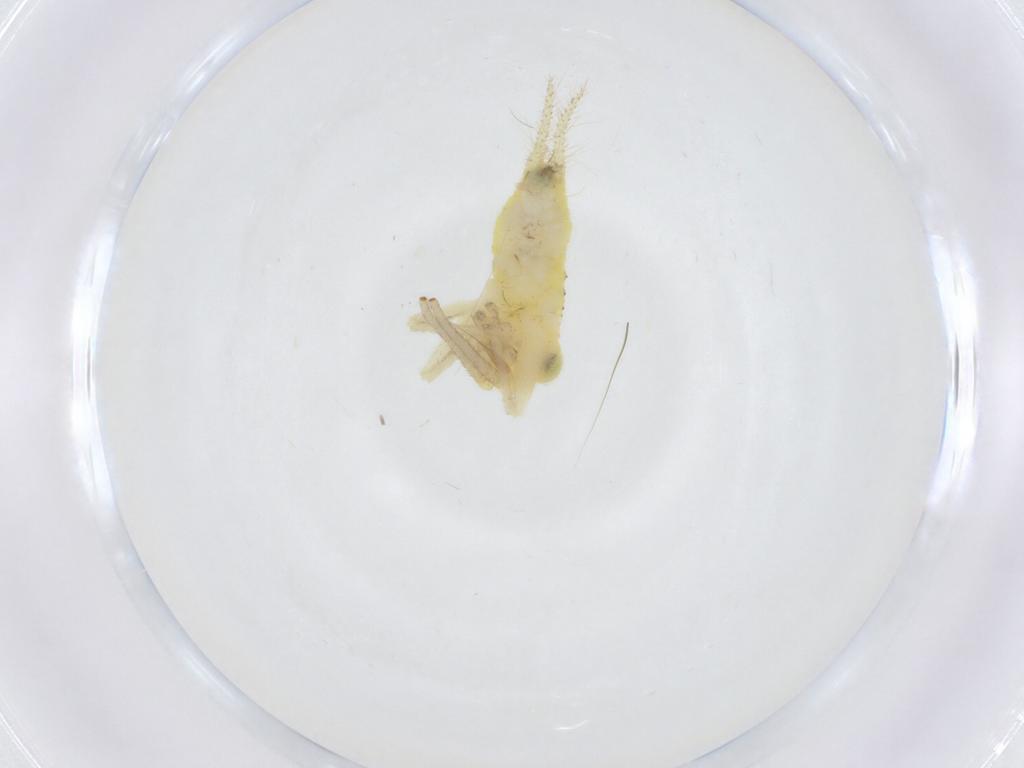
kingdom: Animalia
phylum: Arthropoda
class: Insecta
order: Orthoptera
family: Trigonidiidae
